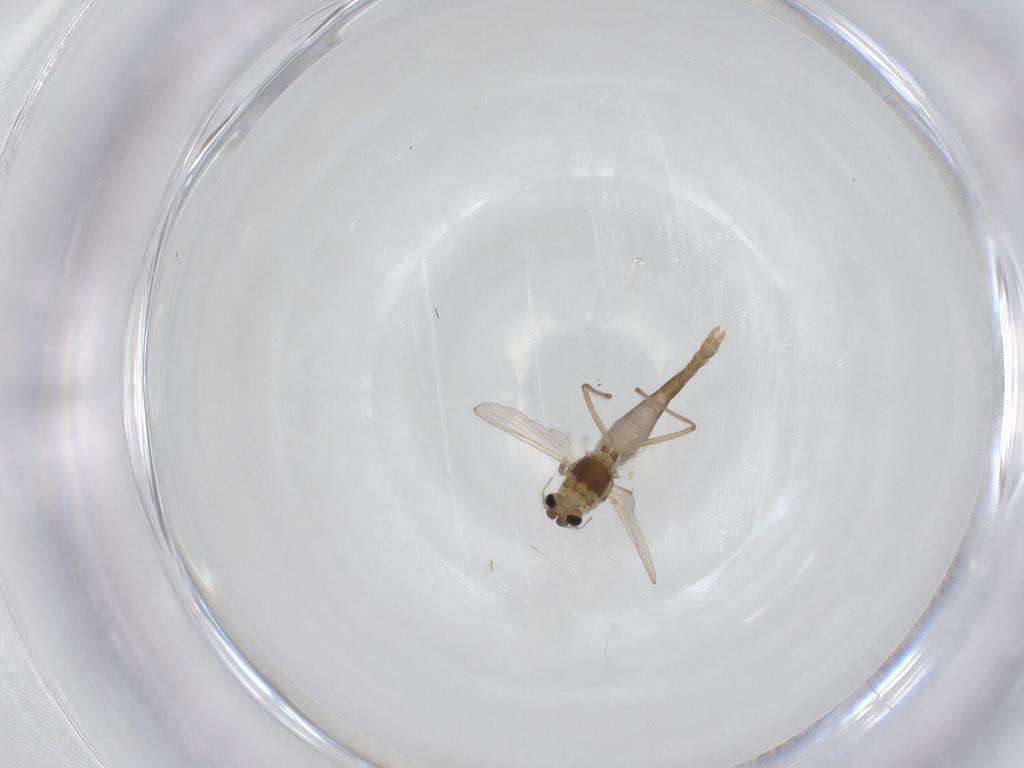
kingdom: Animalia
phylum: Arthropoda
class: Insecta
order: Diptera
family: Chironomidae
